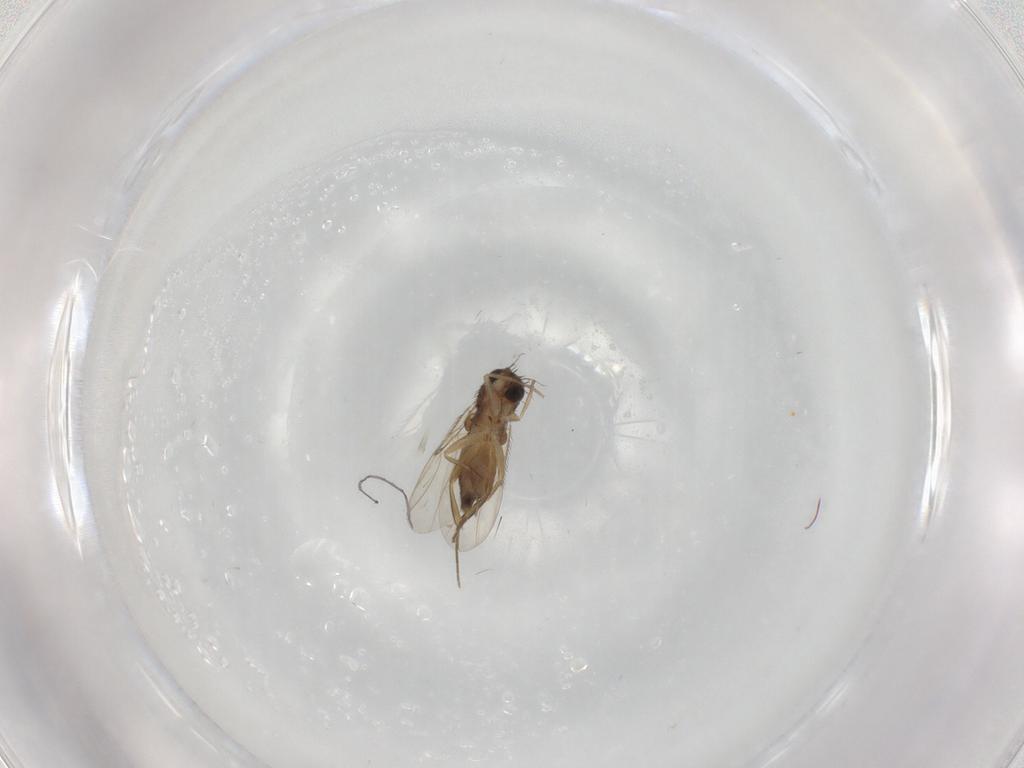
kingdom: Animalia
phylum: Arthropoda
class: Insecta
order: Diptera
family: Phoridae
